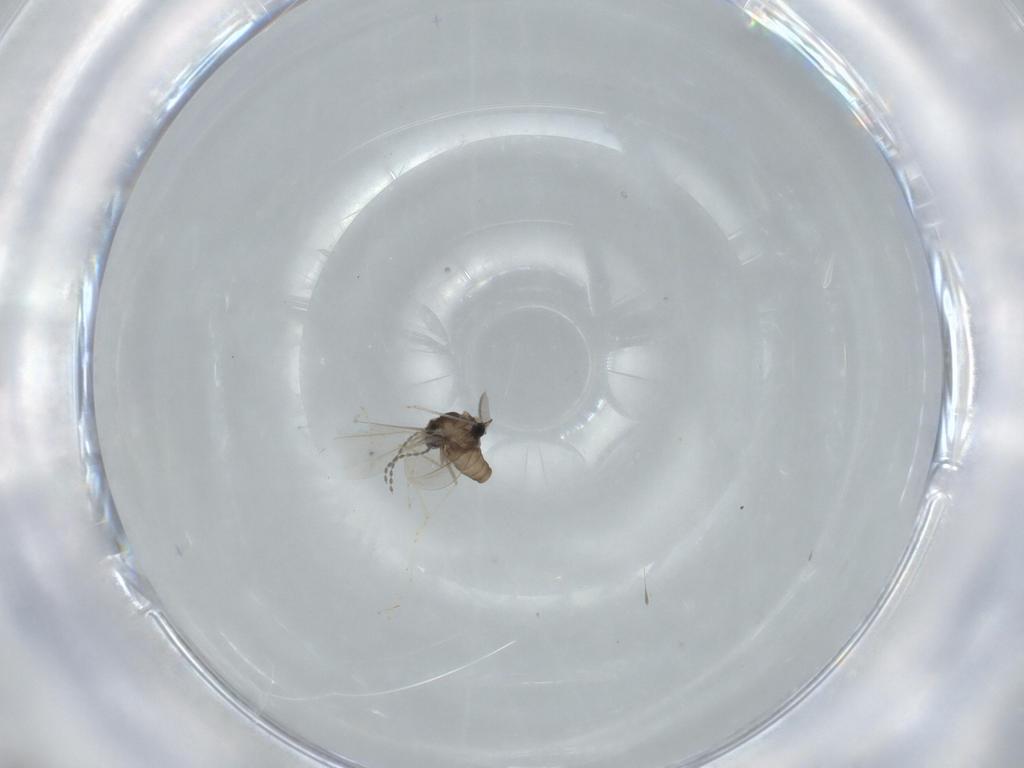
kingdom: Animalia
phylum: Arthropoda
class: Insecta
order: Diptera
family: Cecidomyiidae
